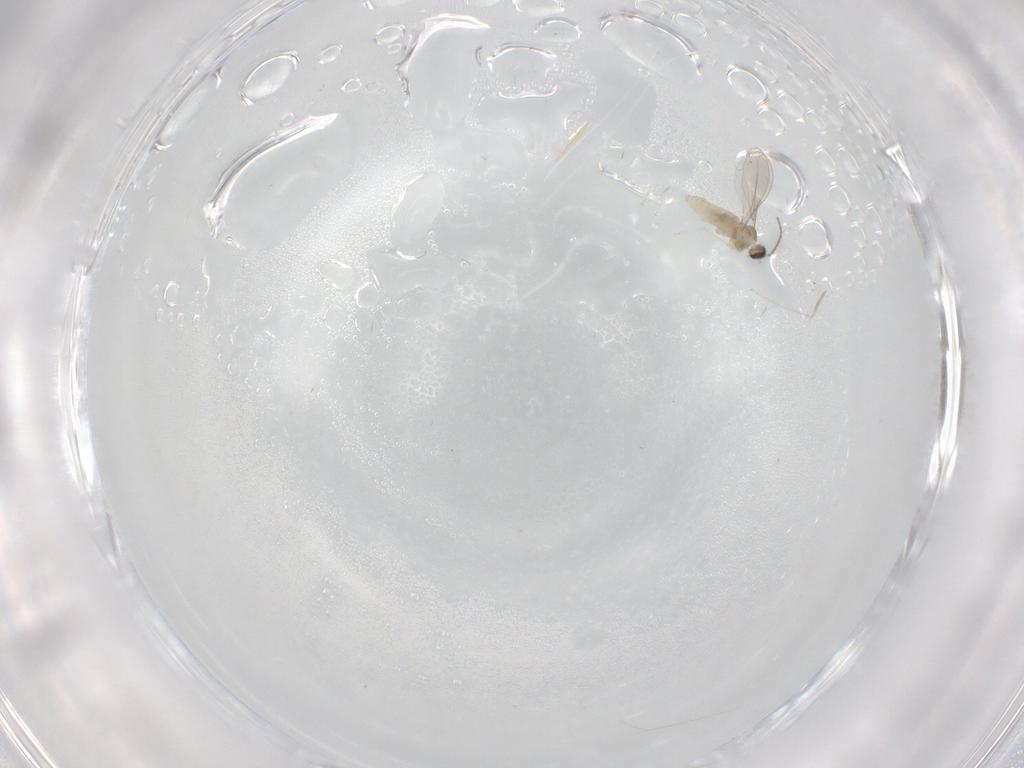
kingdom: Animalia
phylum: Arthropoda
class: Insecta
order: Diptera
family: Cecidomyiidae
